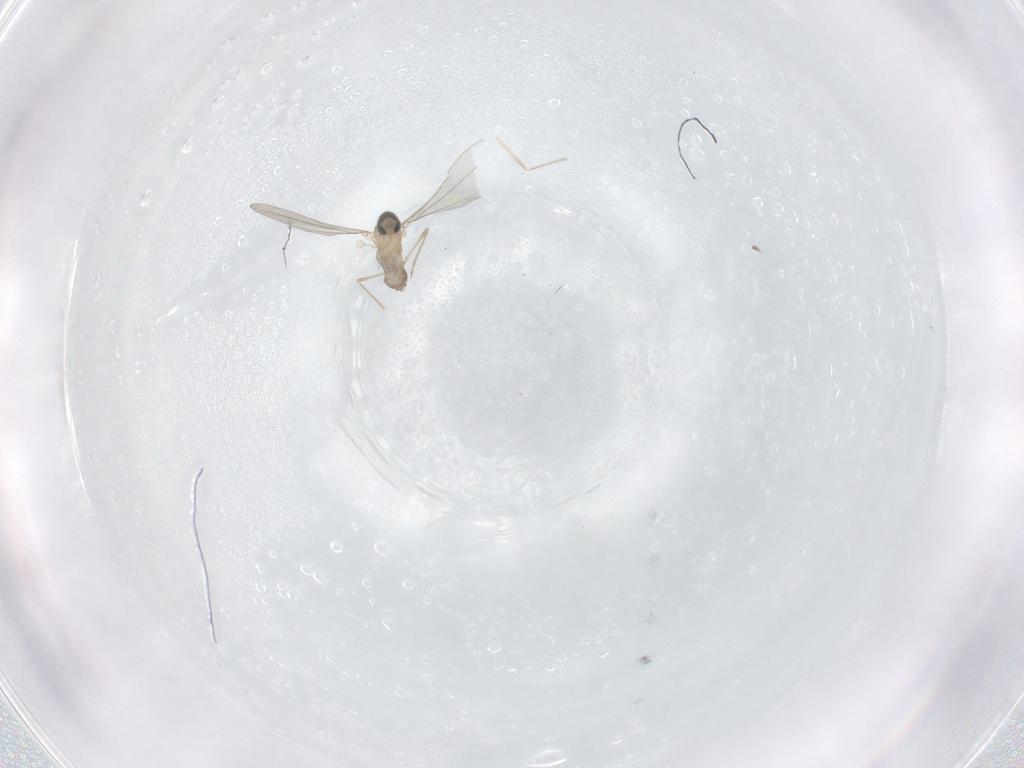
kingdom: Animalia
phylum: Arthropoda
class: Insecta
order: Diptera
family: Cecidomyiidae
